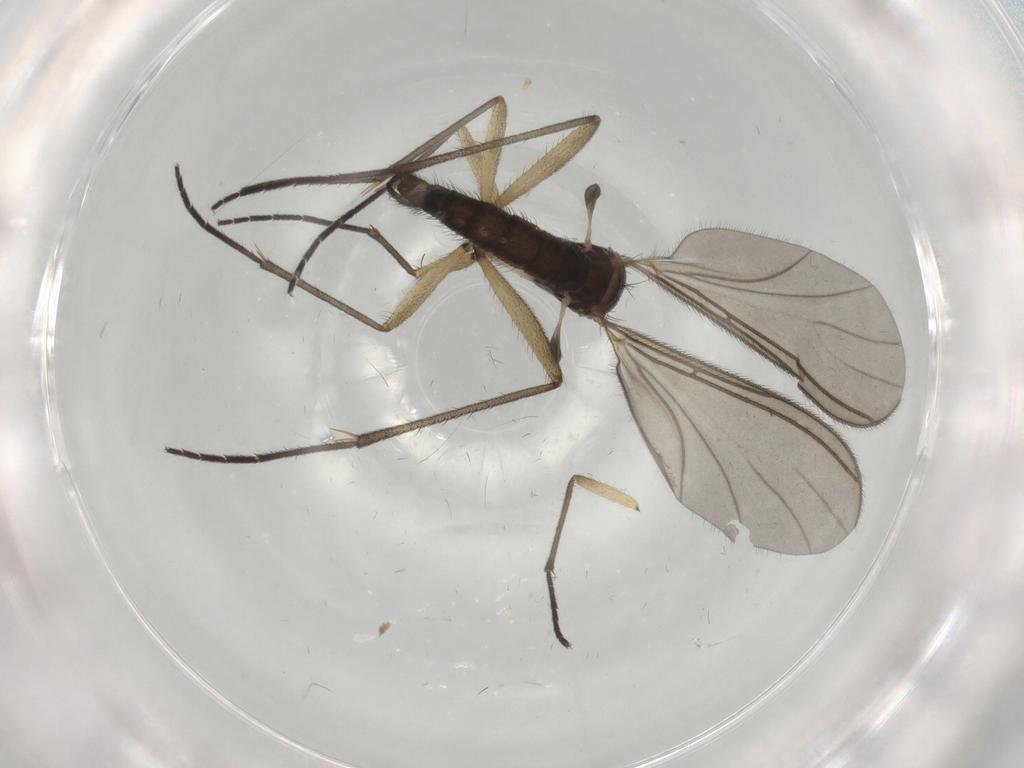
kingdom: Animalia
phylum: Arthropoda
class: Insecta
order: Diptera
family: Sciaridae
